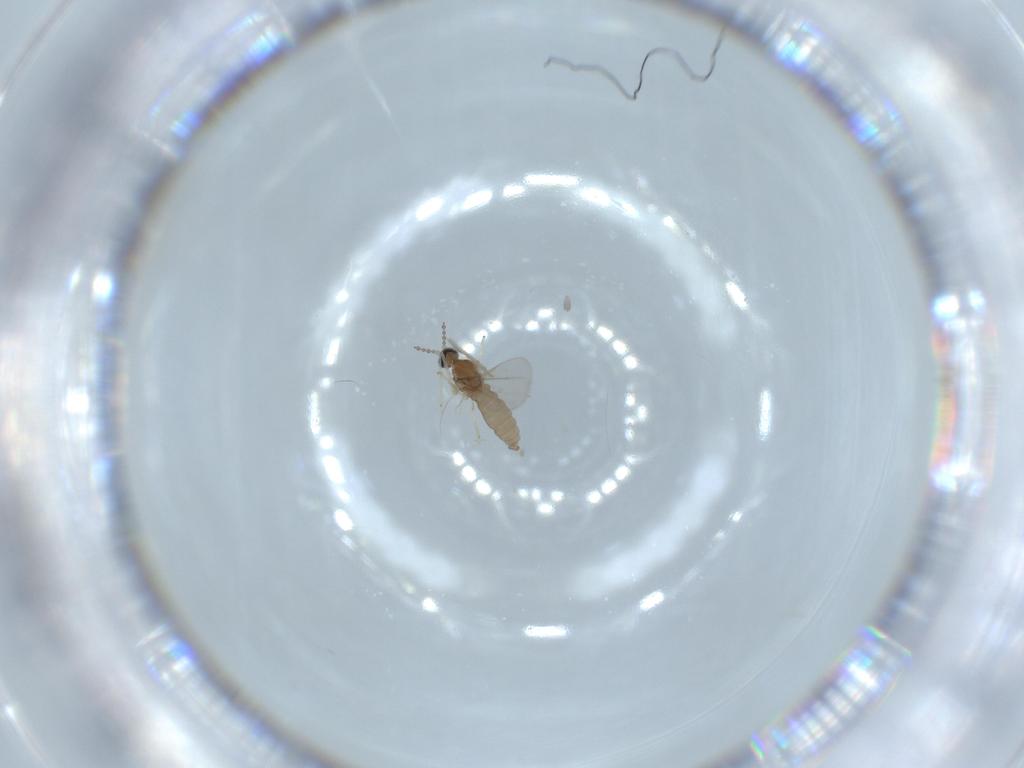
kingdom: Animalia
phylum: Arthropoda
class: Insecta
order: Diptera
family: Cecidomyiidae
